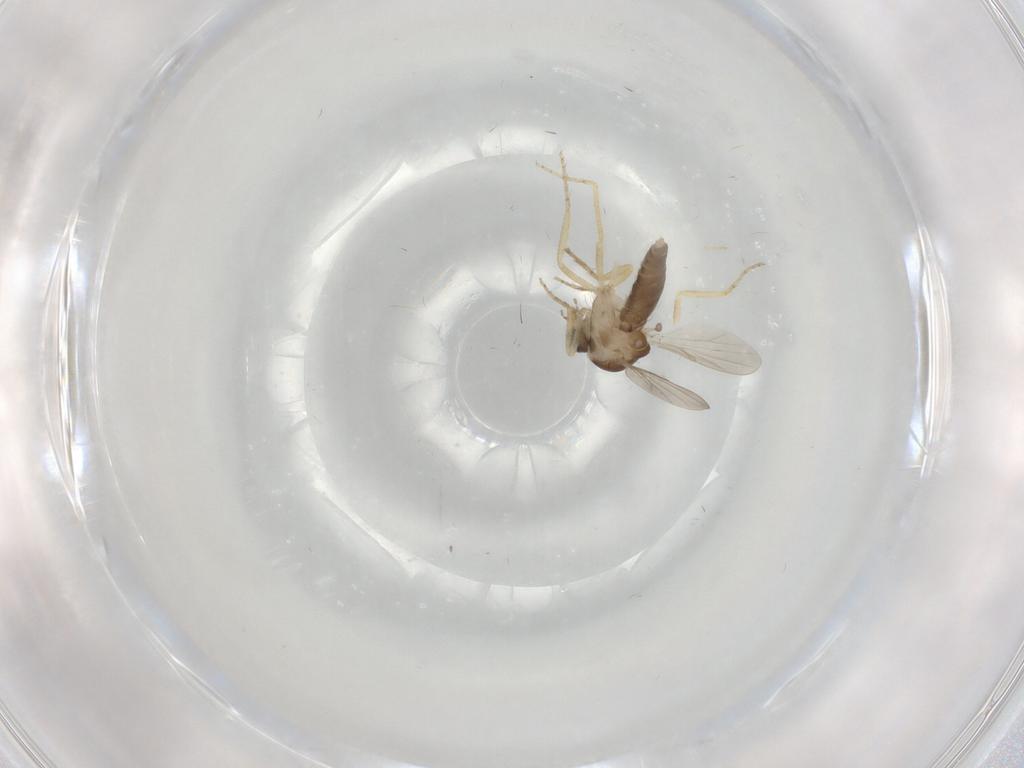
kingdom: Animalia
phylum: Arthropoda
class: Insecta
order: Diptera
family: Ceratopogonidae
